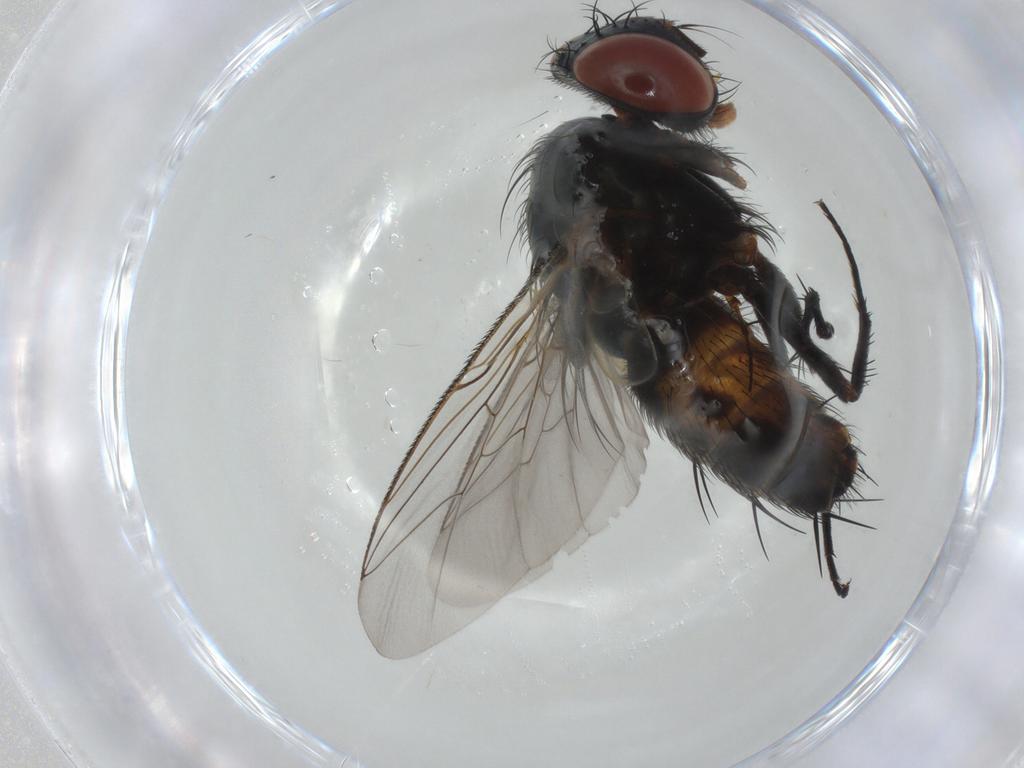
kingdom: Animalia
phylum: Arthropoda
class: Insecta
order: Diptera
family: Sarcophagidae
